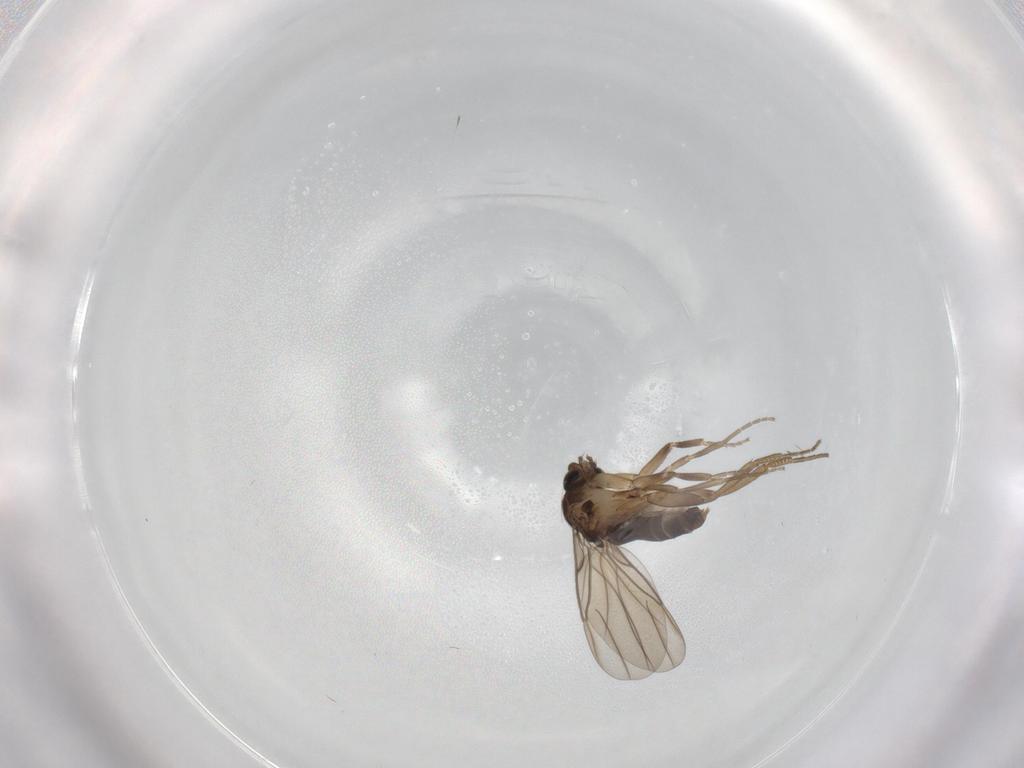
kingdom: Animalia
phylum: Arthropoda
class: Insecta
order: Diptera
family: Phoridae
